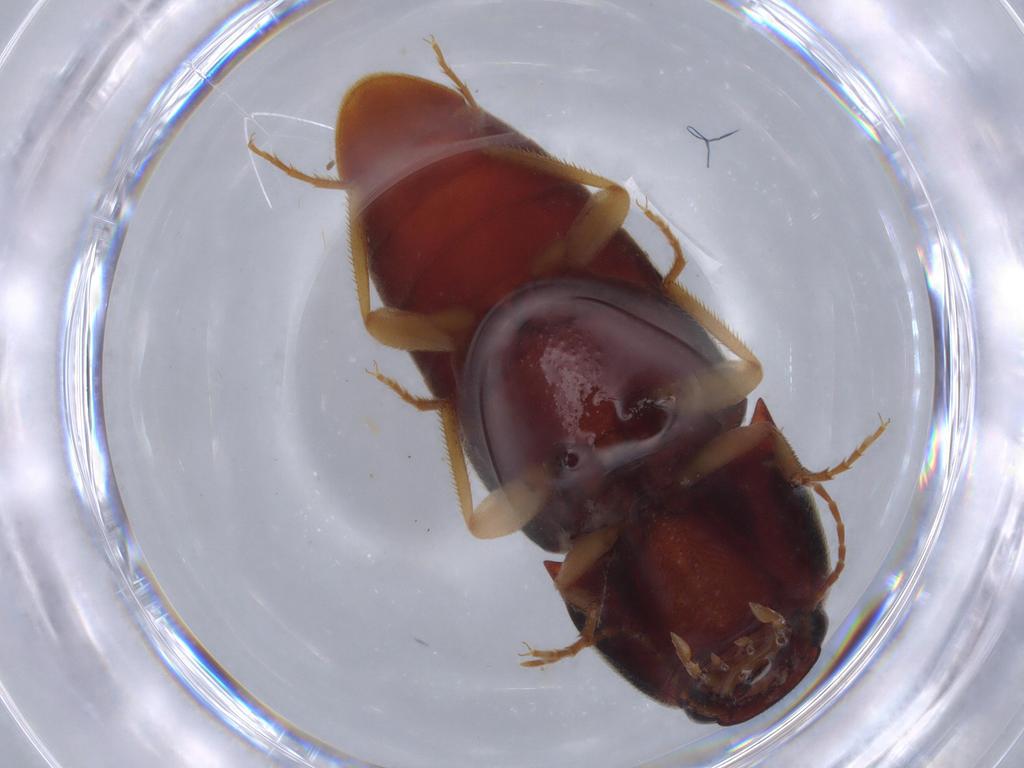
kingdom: Animalia
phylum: Arthropoda
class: Insecta
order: Coleoptera
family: Elateridae
